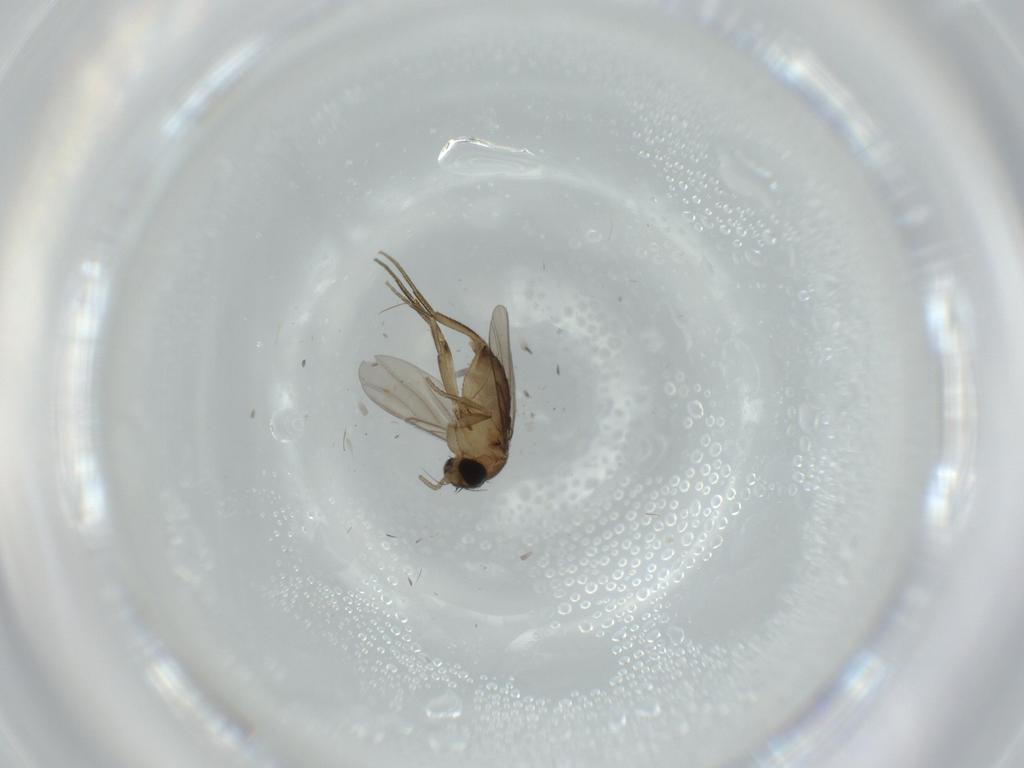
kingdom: Animalia
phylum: Arthropoda
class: Insecta
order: Diptera
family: Phoridae
